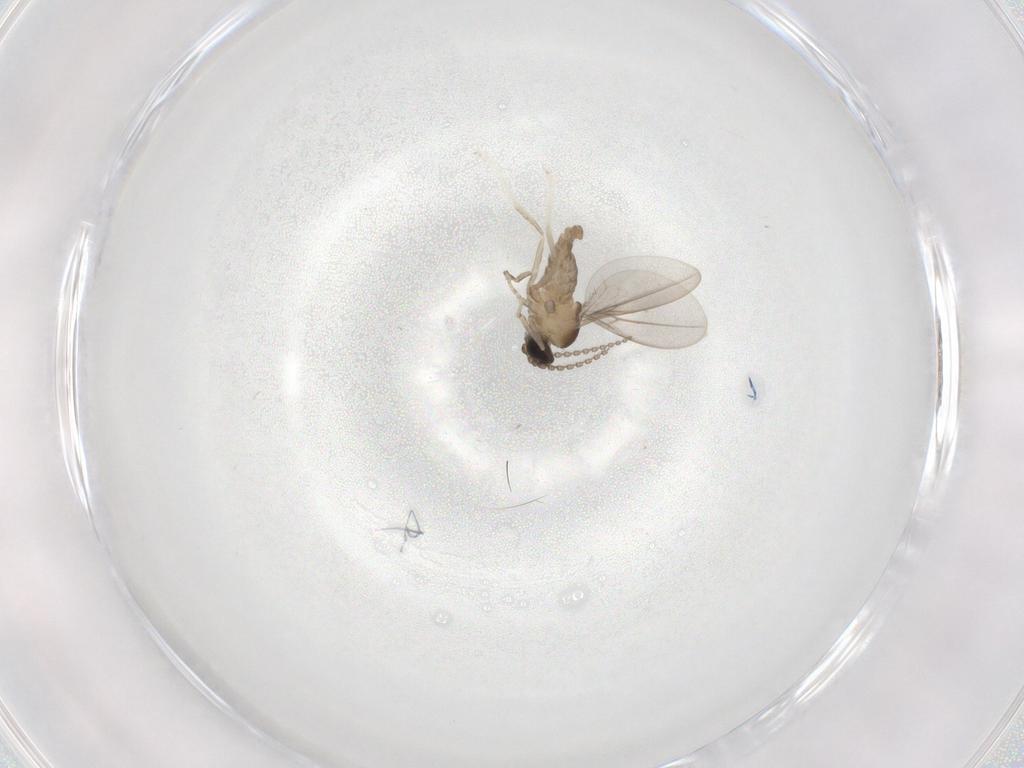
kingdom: Animalia
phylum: Arthropoda
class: Insecta
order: Diptera
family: Cecidomyiidae
